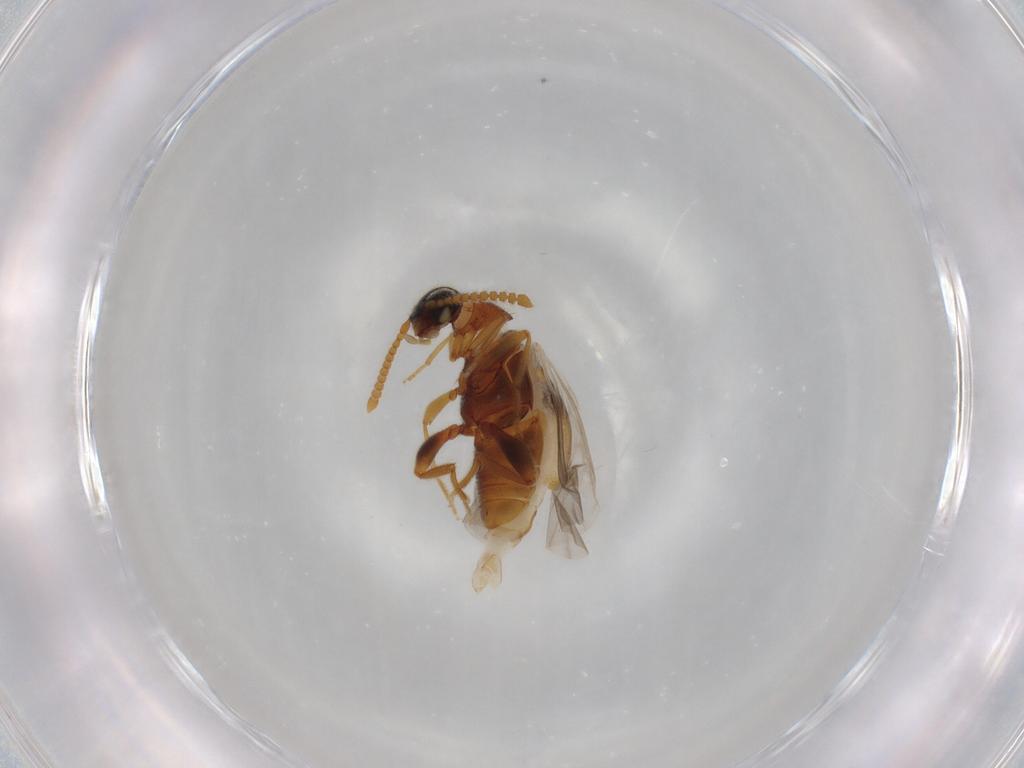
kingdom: Animalia
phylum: Arthropoda
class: Insecta
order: Coleoptera
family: Aderidae
